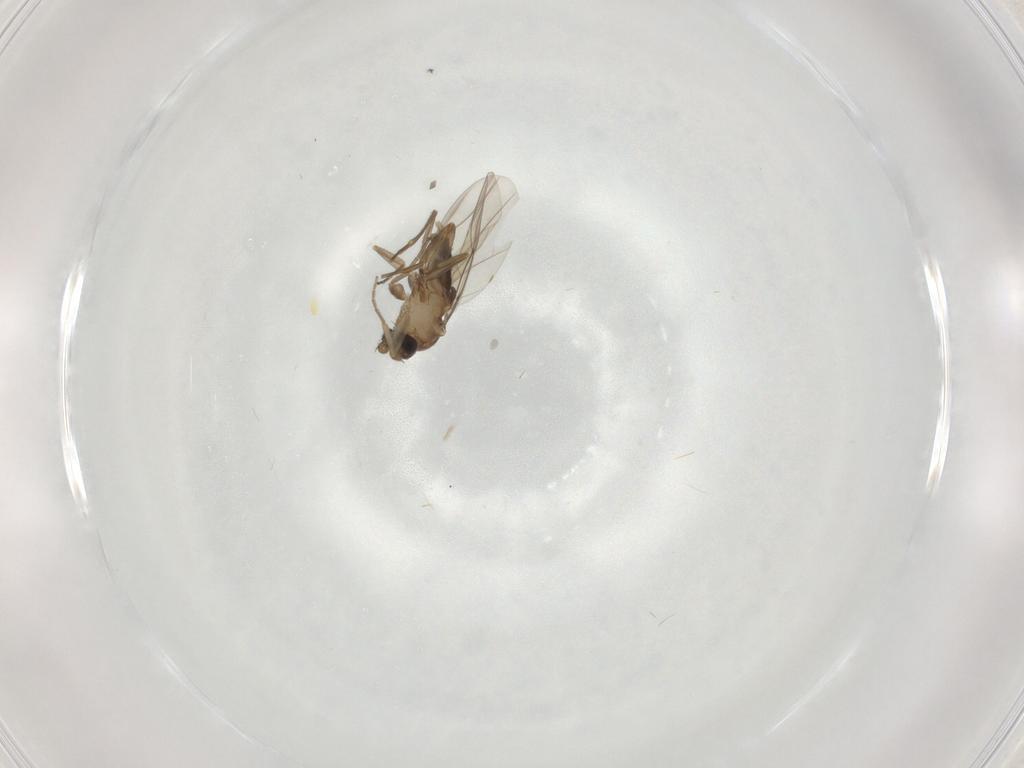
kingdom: Animalia
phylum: Arthropoda
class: Insecta
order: Diptera
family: Phoridae
